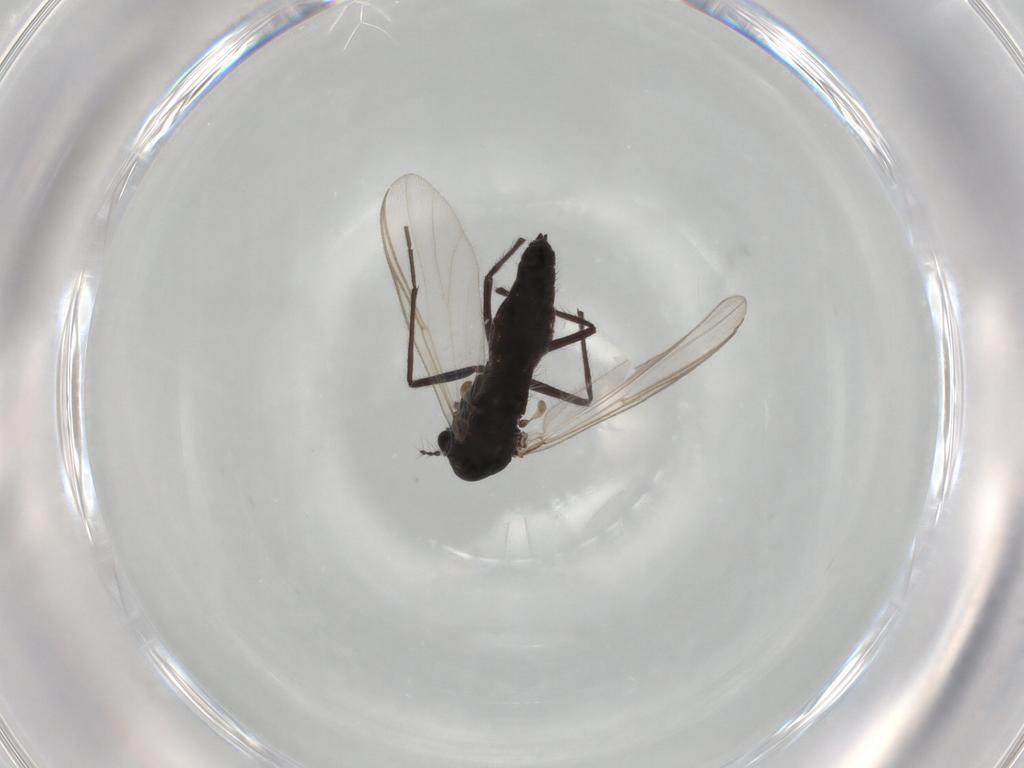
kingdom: Animalia
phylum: Arthropoda
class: Insecta
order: Diptera
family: Chloropidae
